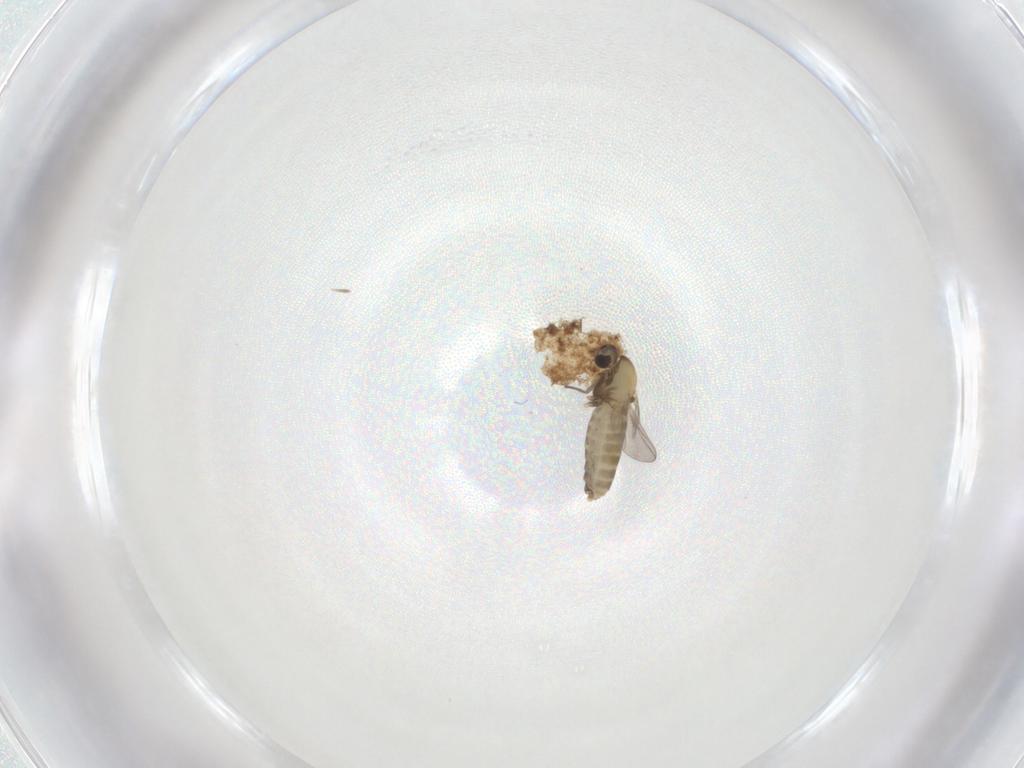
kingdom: Animalia
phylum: Arthropoda
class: Insecta
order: Diptera
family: Chironomidae
